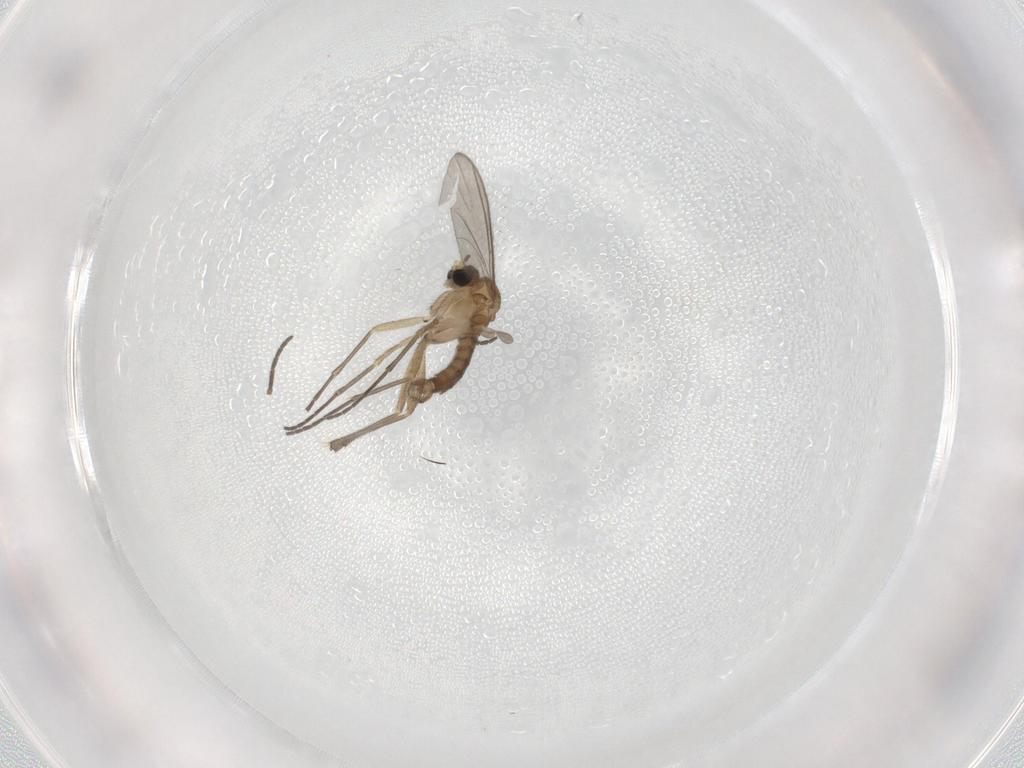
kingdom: Animalia
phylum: Arthropoda
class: Insecta
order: Diptera
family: Sciaridae
